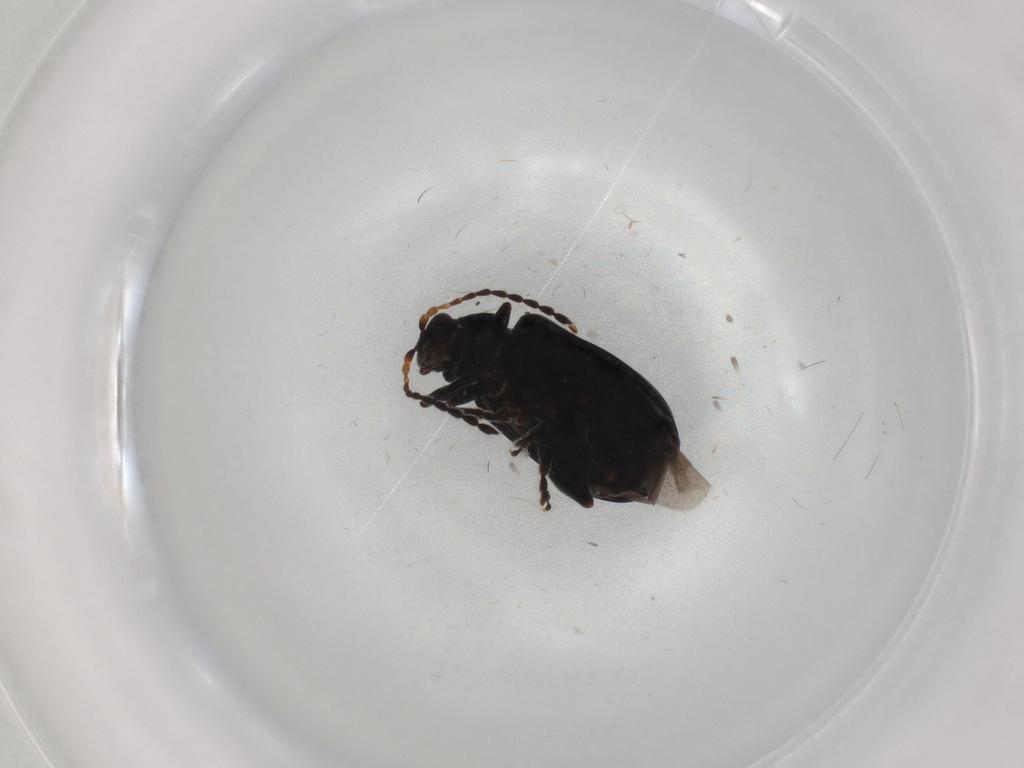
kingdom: Animalia
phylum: Arthropoda
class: Insecta
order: Coleoptera
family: Chrysomelidae
